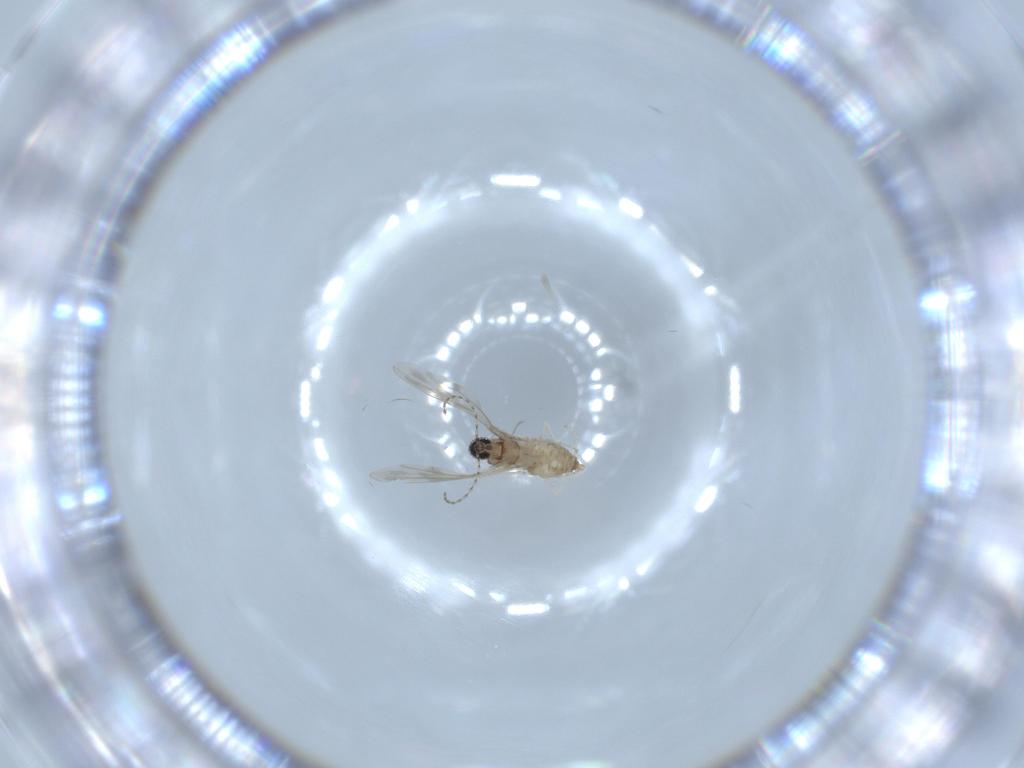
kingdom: Animalia
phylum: Arthropoda
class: Insecta
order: Diptera
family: Cecidomyiidae
